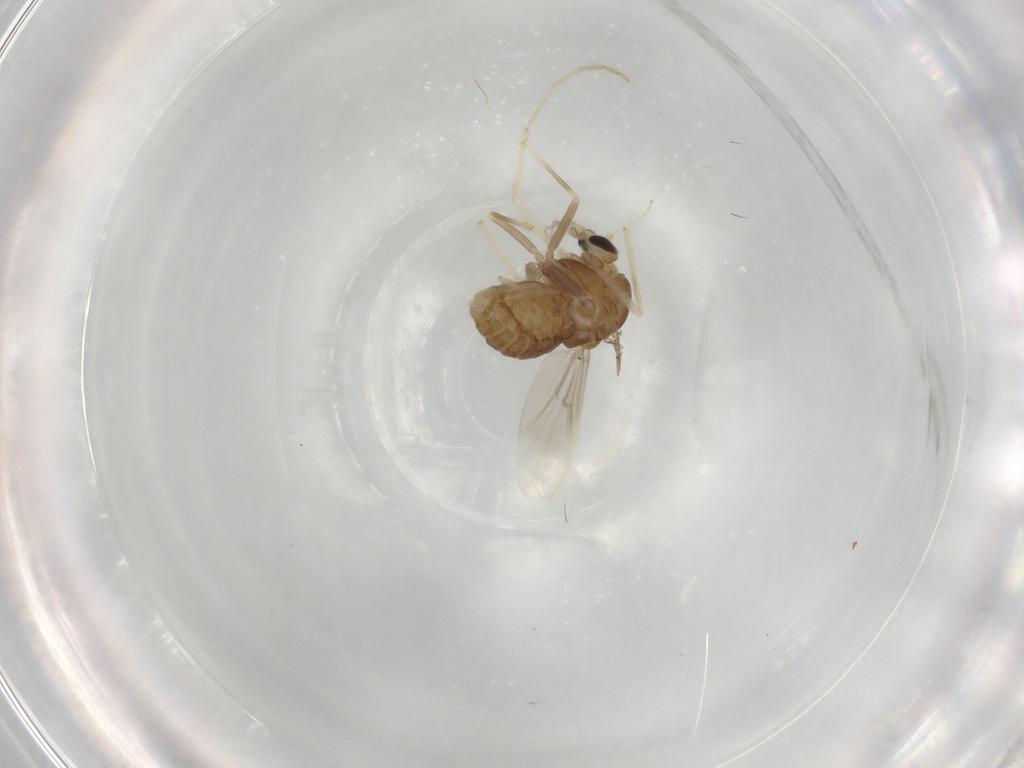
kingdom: Animalia
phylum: Arthropoda
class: Insecta
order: Diptera
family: Chironomidae
